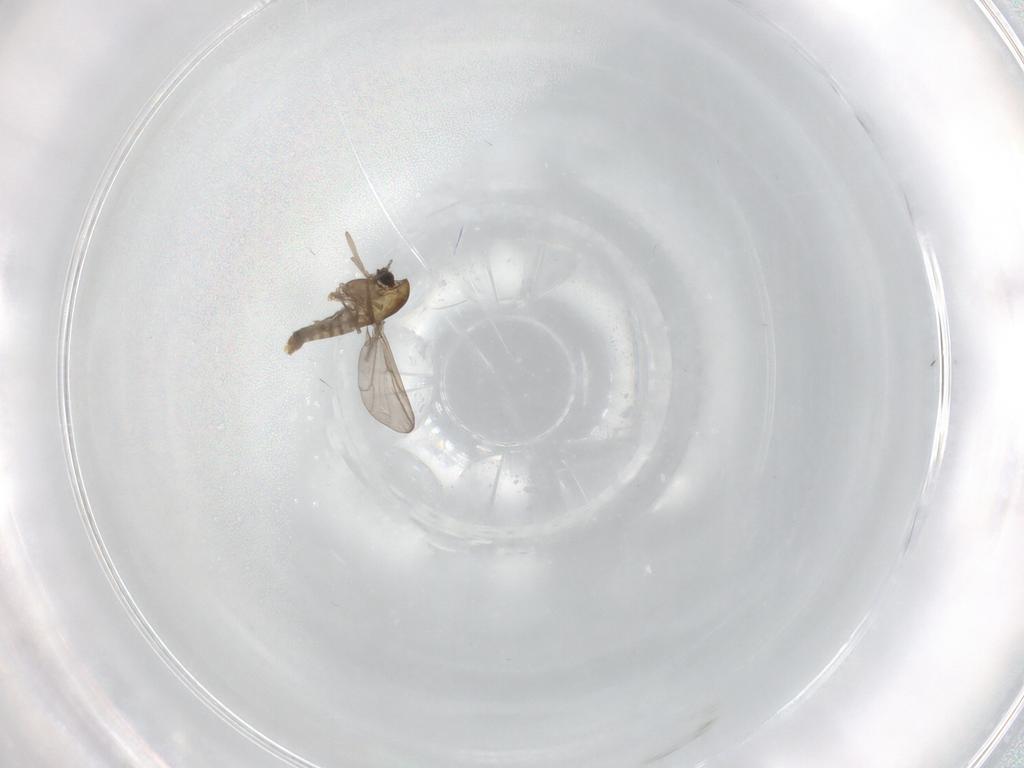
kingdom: Animalia
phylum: Arthropoda
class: Insecta
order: Diptera
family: Psychodidae
